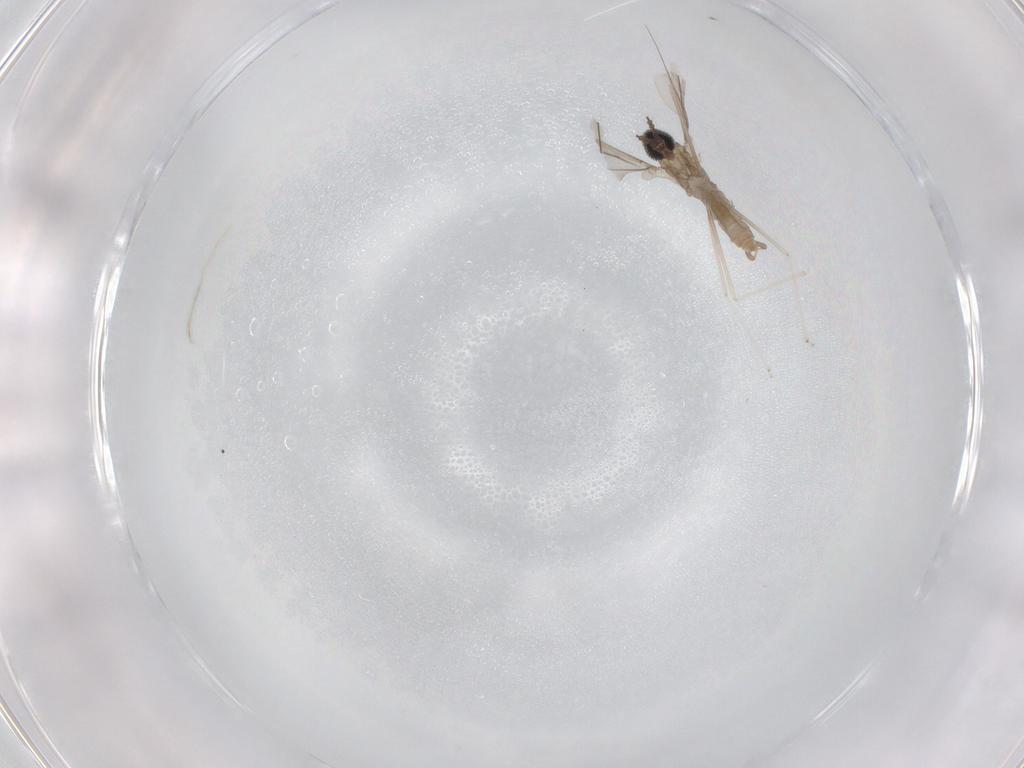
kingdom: Animalia
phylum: Arthropoda
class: Insecta
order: Diptera
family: Cecidomyiidae
